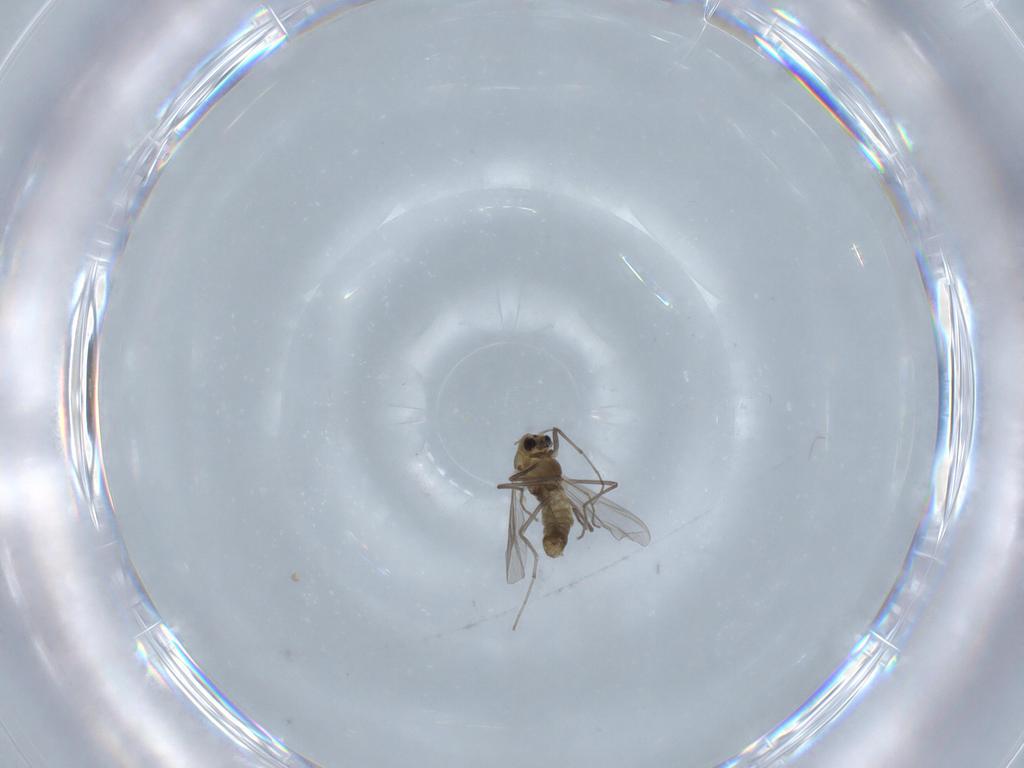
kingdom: Animalia
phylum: Arthropoda
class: Insecta
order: Diptera
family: Chironomidae
